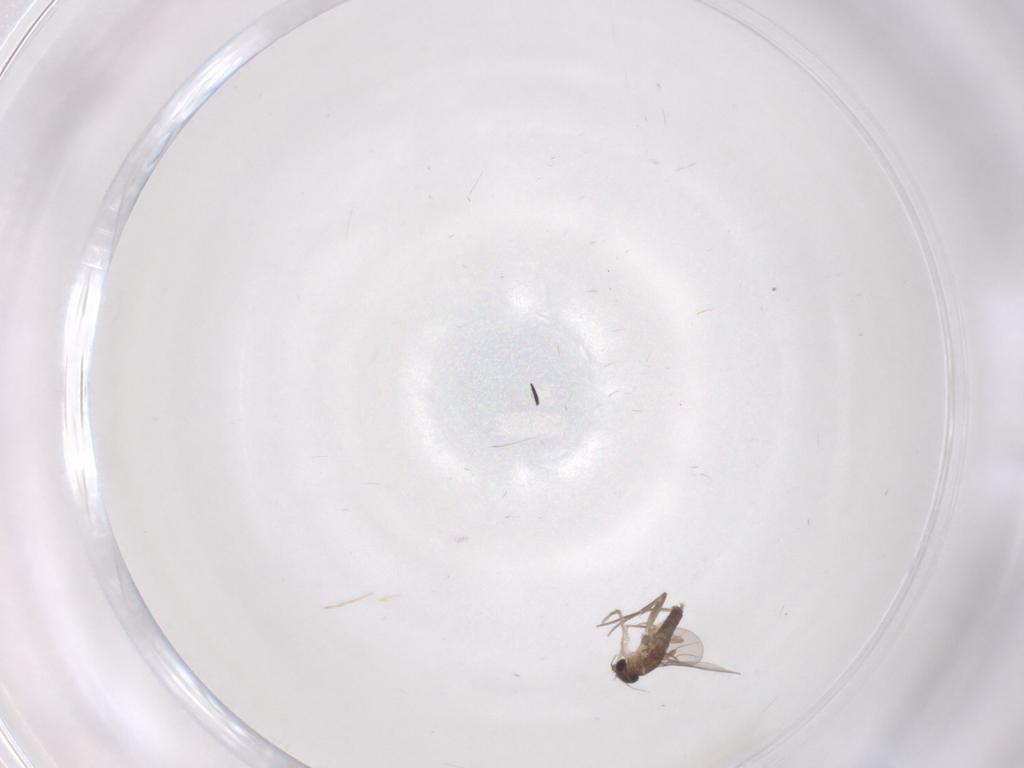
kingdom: Animalia
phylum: Arthropoda
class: Insecta
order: Diptera
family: Chironomidae
